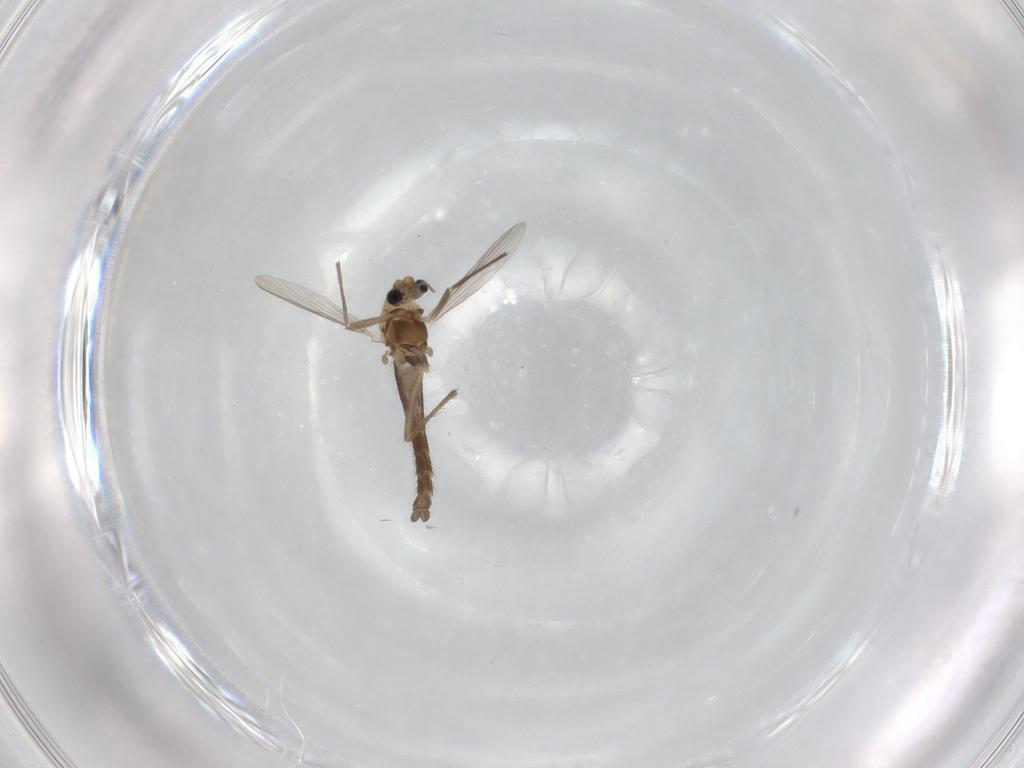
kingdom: Animalia
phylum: Arthropoda
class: Insecta
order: Diptera
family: Chironomidae
